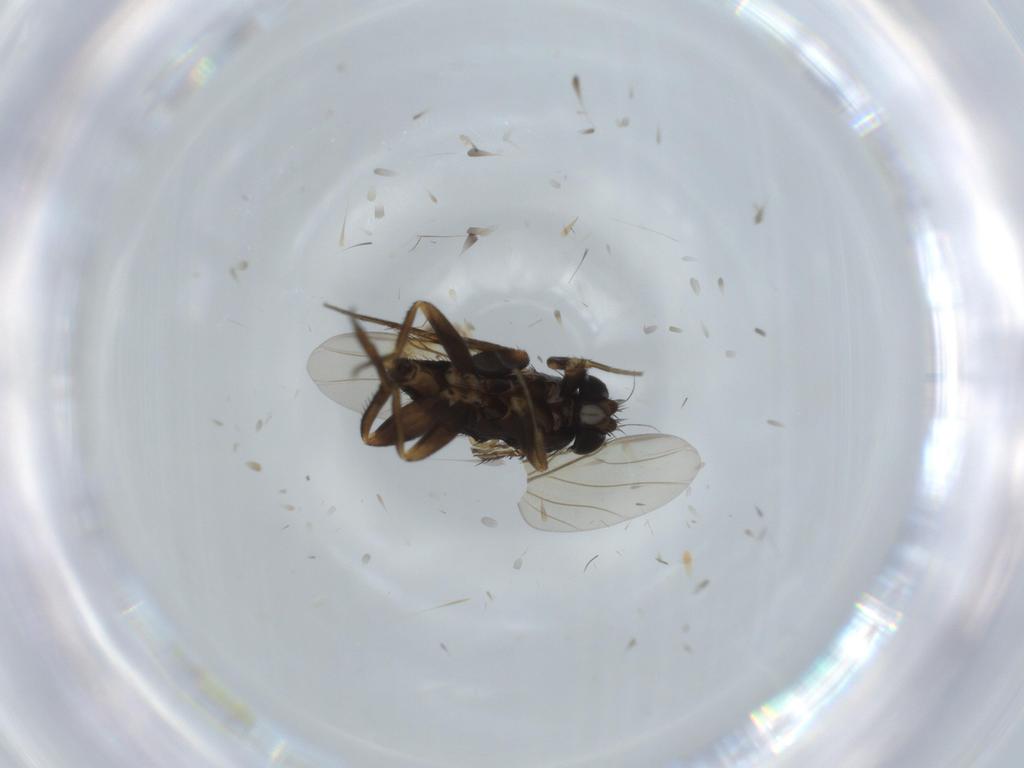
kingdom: Animalia
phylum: Arthropoda
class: Insecta
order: Diptera
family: Phoridae
